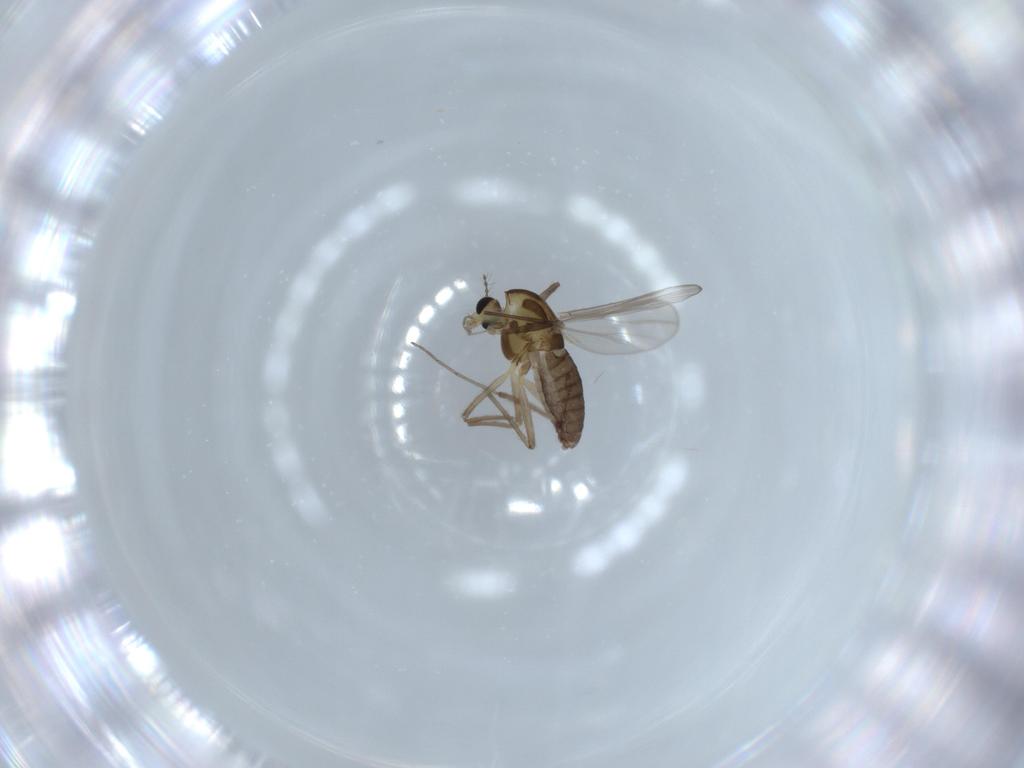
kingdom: Animalia
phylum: Arthropoda
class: Insecta
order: Diptera
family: Chironomidae
